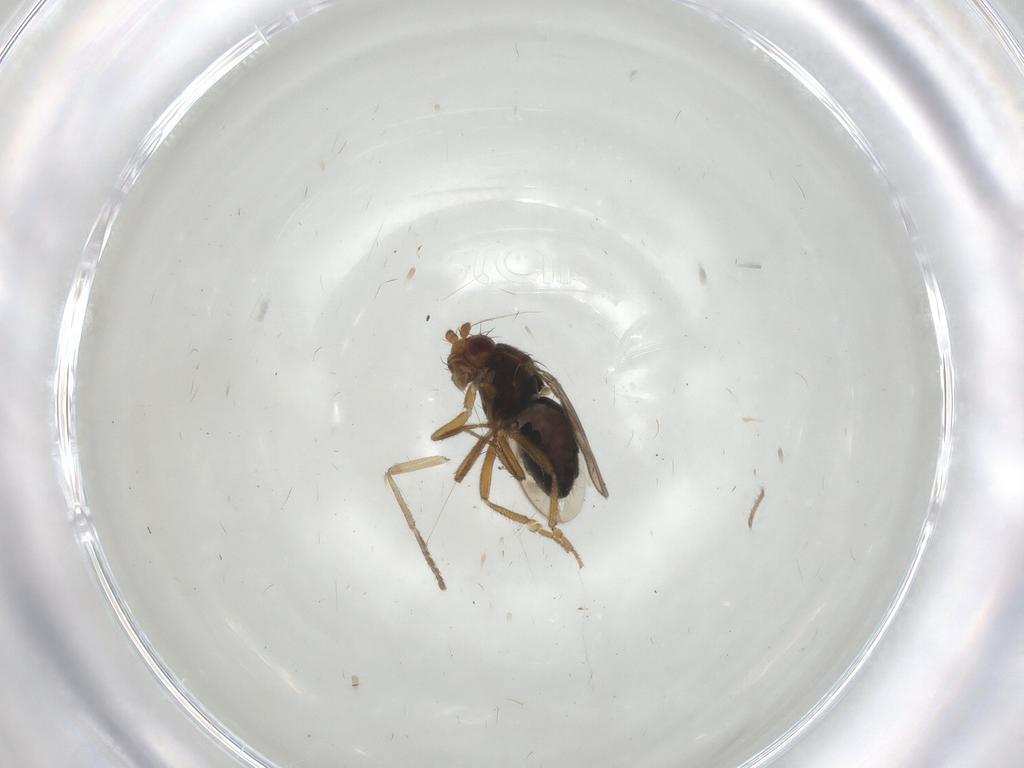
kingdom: Animalia
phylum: Arthropoda
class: Insecta
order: Diptera
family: Sphaeroceridae
